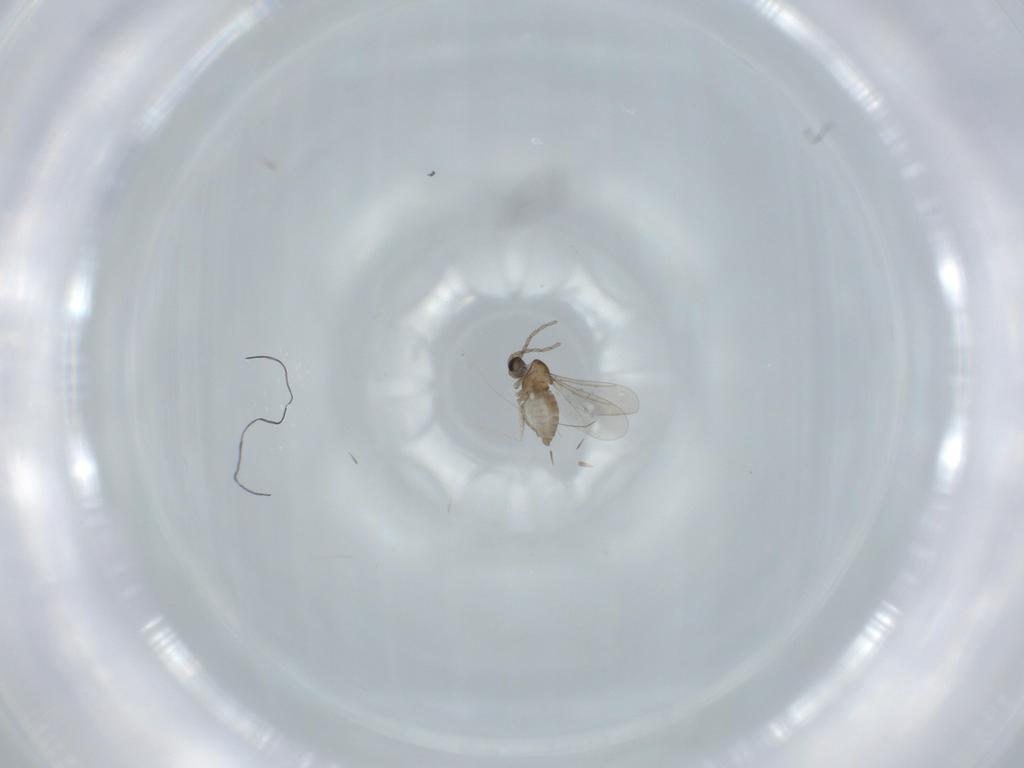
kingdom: Animalia
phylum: Arthropoda
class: Insecta
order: Diptera
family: Cecidomyiidae
